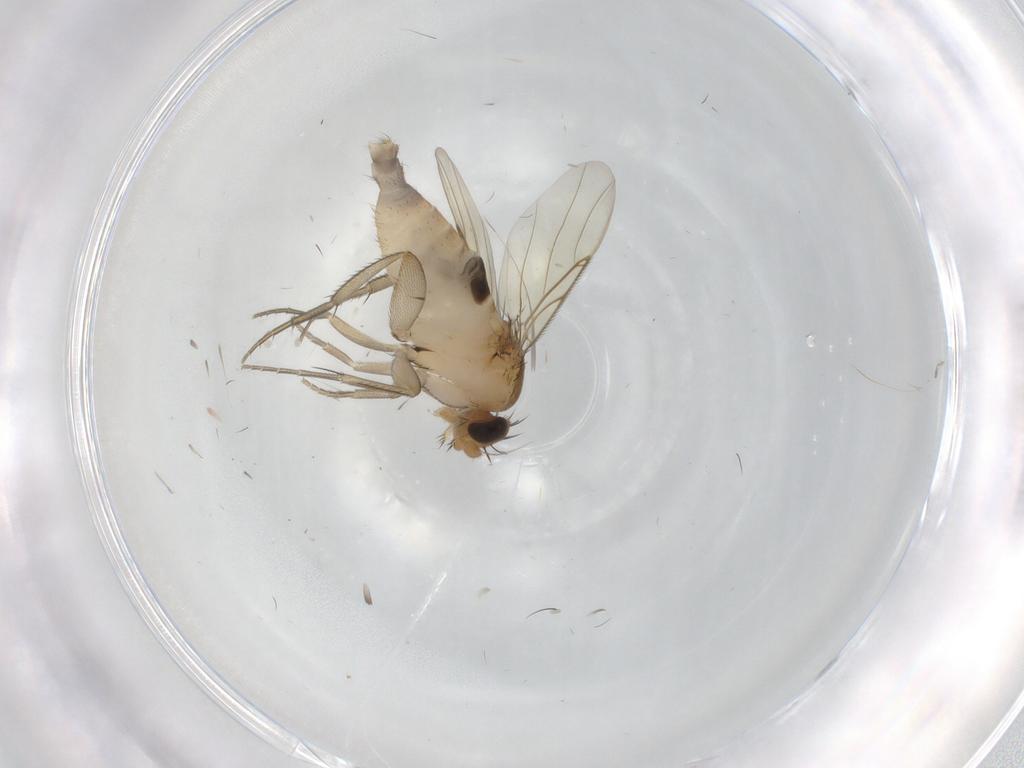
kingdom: Animalia
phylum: Arthropoda
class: Insecta
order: Diptera
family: Phoridae
